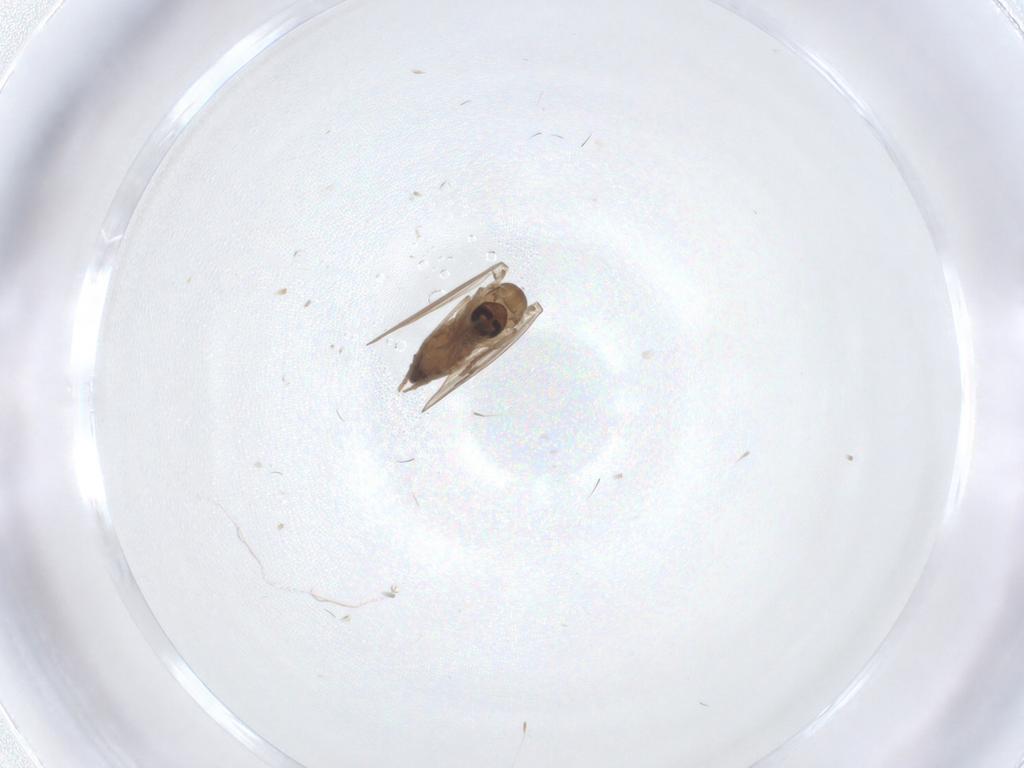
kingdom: Animalia
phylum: Arthropoda
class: Insecta
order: Diptera
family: Psychodidae
